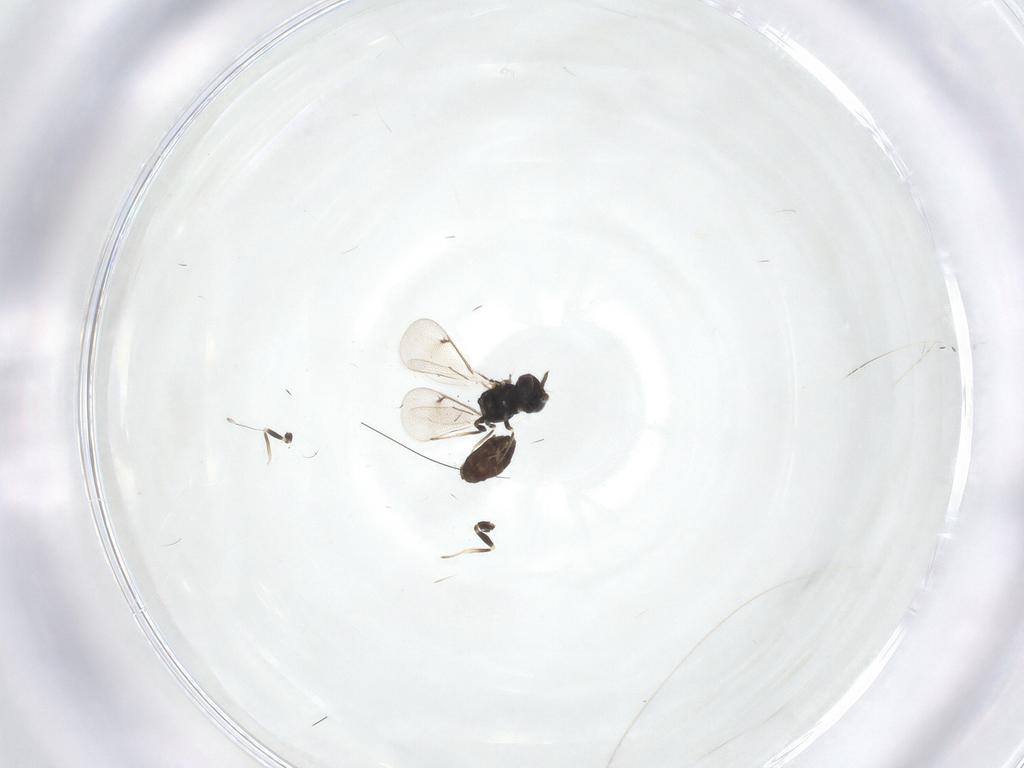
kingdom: Animalia
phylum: Arthropoda
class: Insecta
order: Hymenoptera
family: Eulophidae
